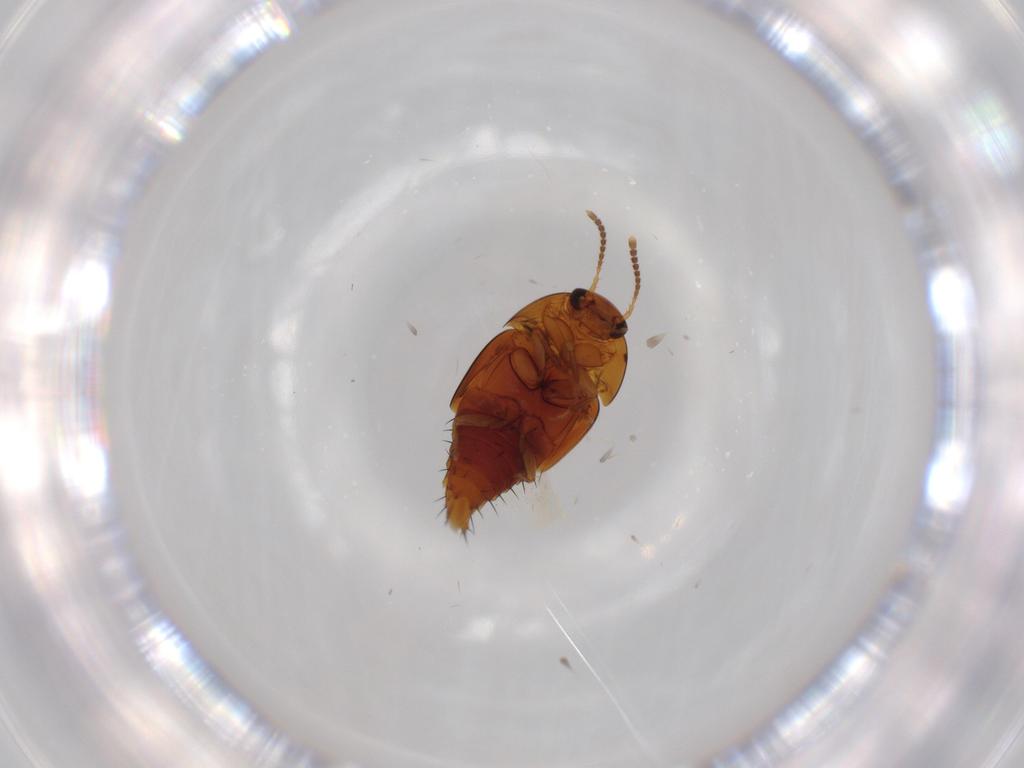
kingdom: Animalia
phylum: Arthropoda
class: Insecta
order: Coleoptera
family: Staphylinidae
